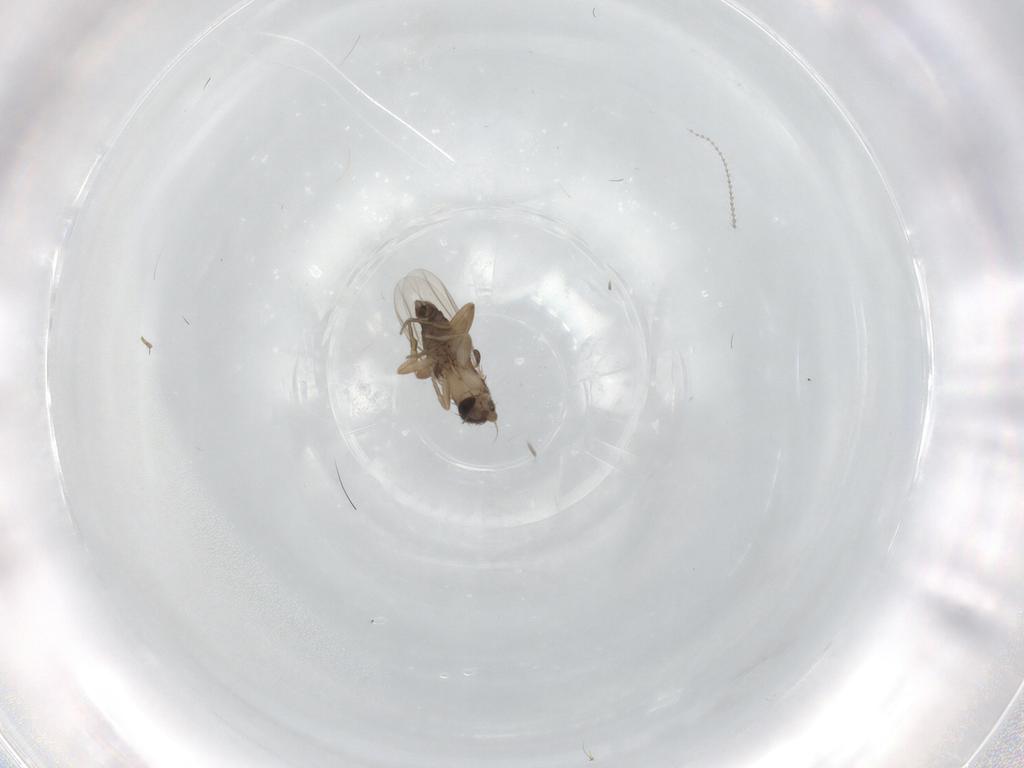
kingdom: Animalia
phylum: Arthropoda
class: Insecta
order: Diptera
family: Phoridae
